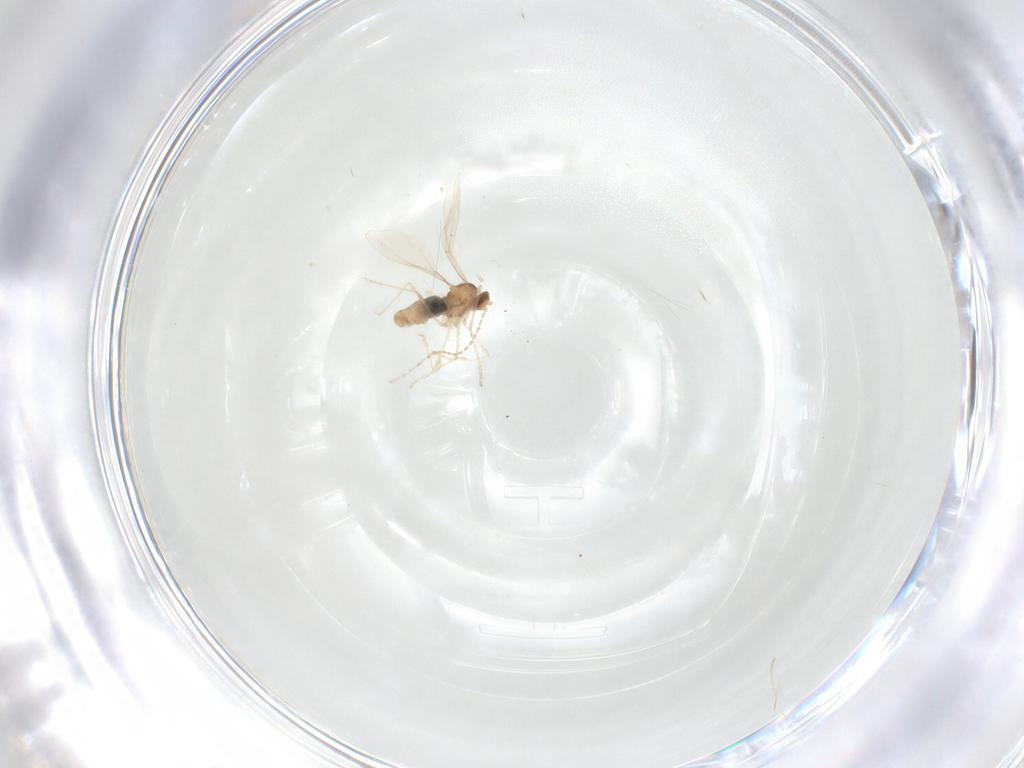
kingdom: Animalia
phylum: Arthropoda
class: Insecta
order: Diptera
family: Cecidomyiidae
